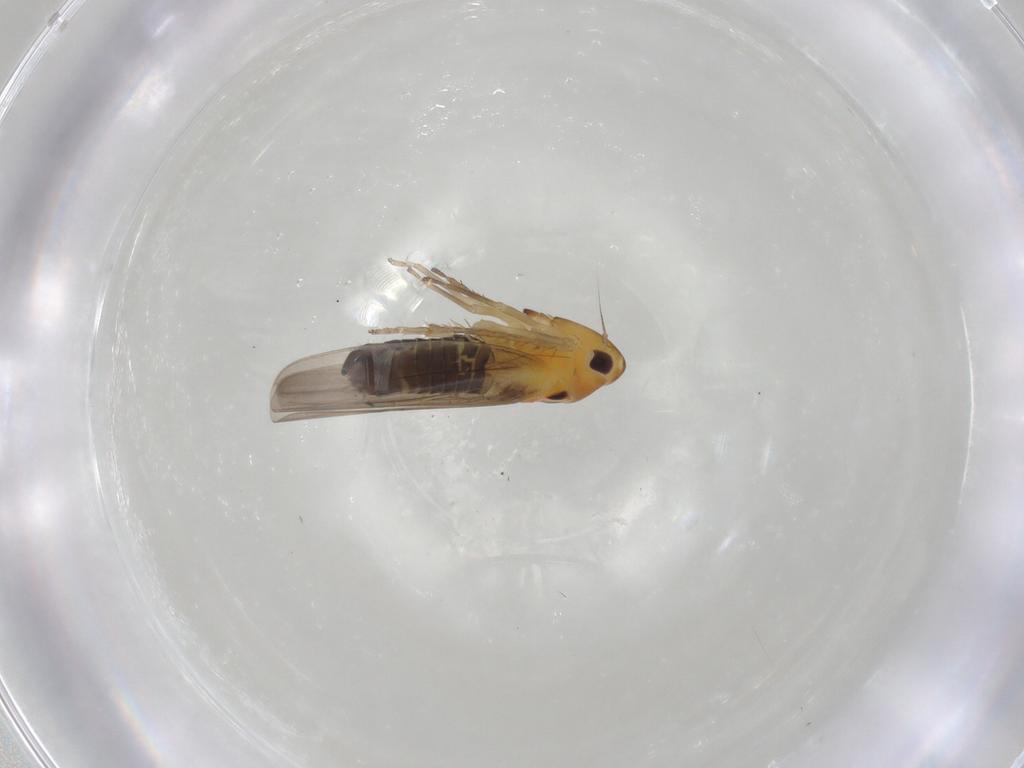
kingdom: Animalia
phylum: Arthropoda
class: Insecta
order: Hemiptera
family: Cicadellidae
